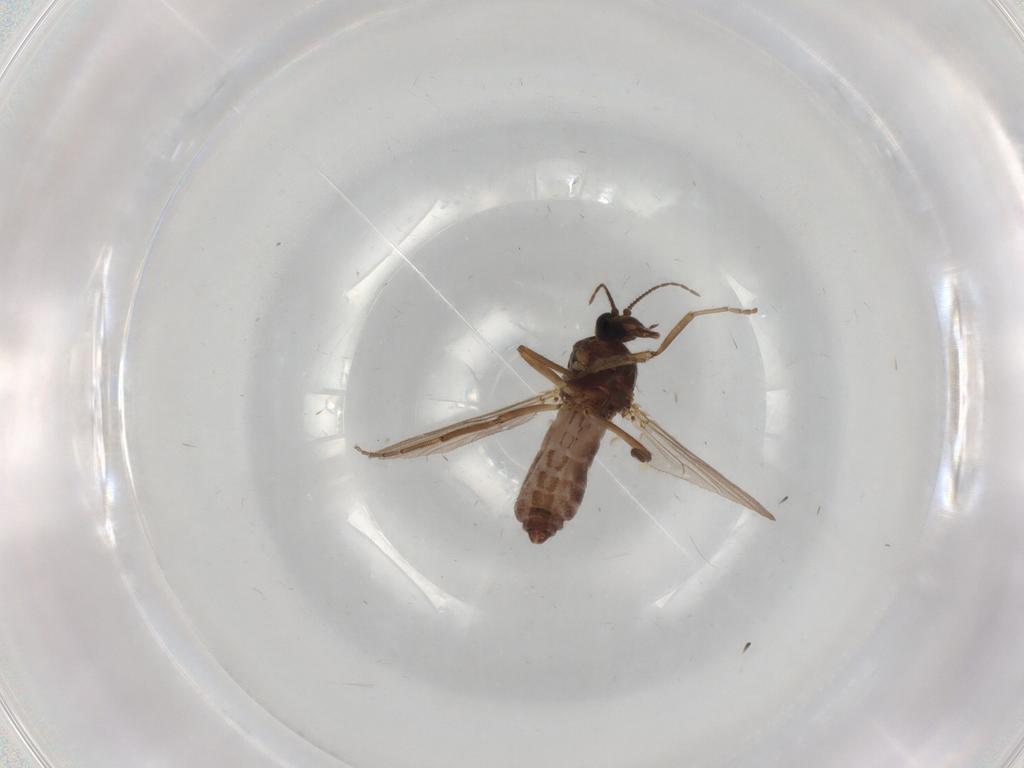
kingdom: Animalia
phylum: Arthropoda
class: Insecta
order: Diptera
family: Ceratopogonidae
